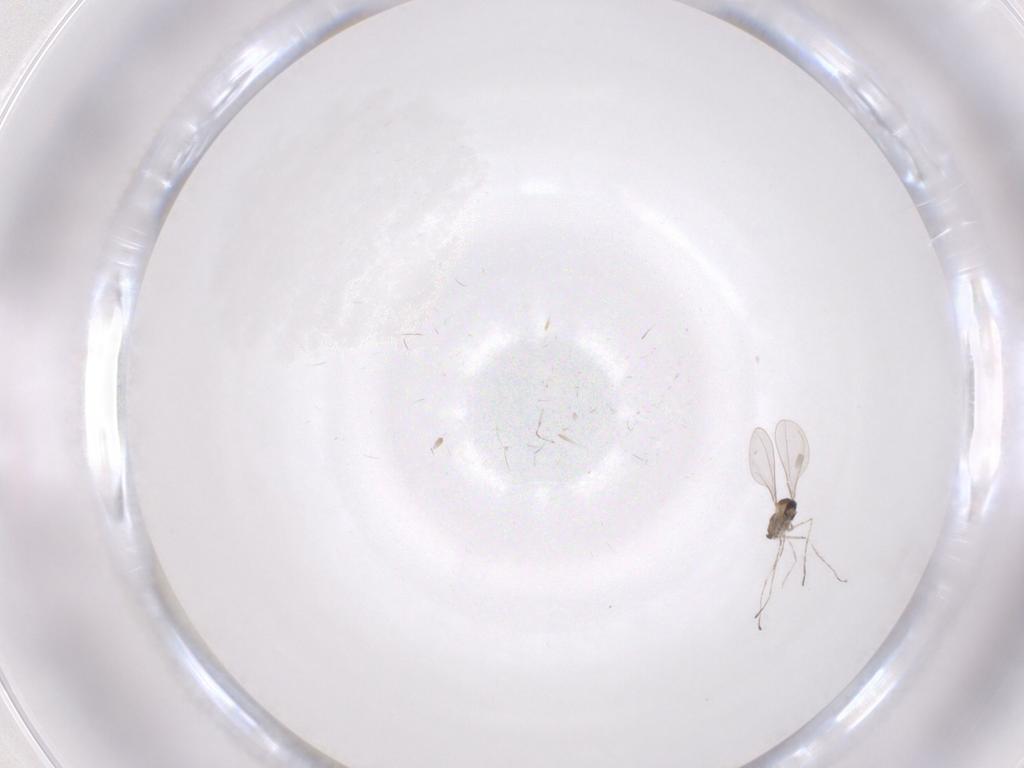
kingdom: Animalia
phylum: Arthropoda
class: Insecta
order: Diptera
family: Cecidomyiidae
